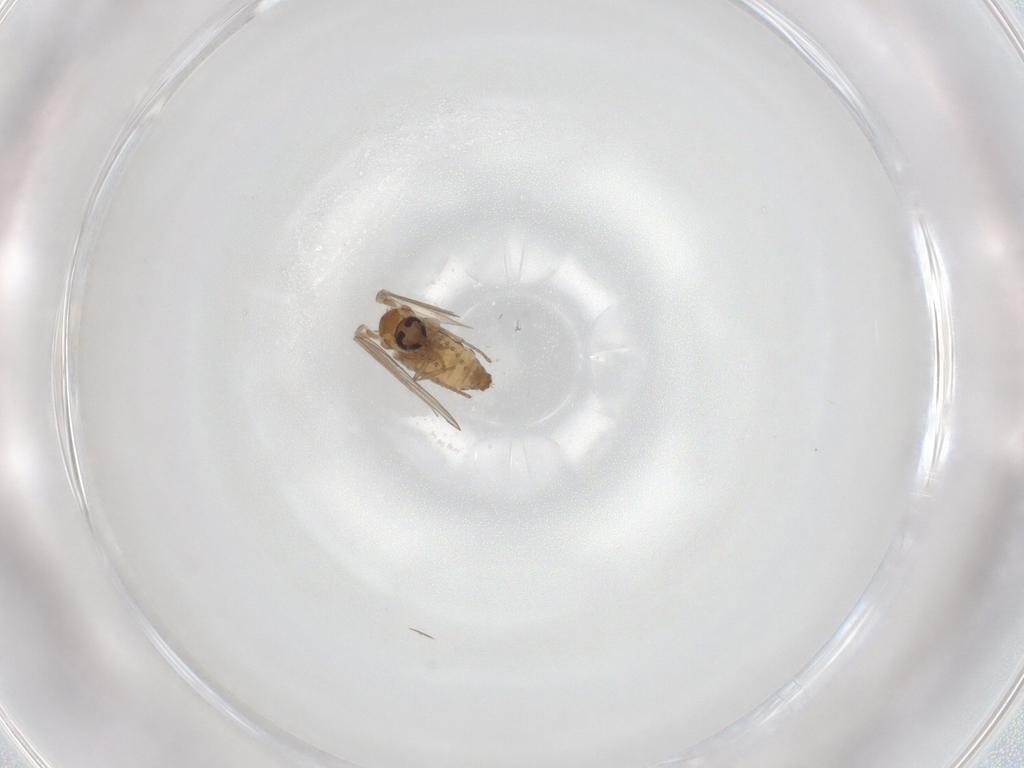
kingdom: Animalia
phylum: Arthropoda
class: Insecta
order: Diptera
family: Psychodidae
